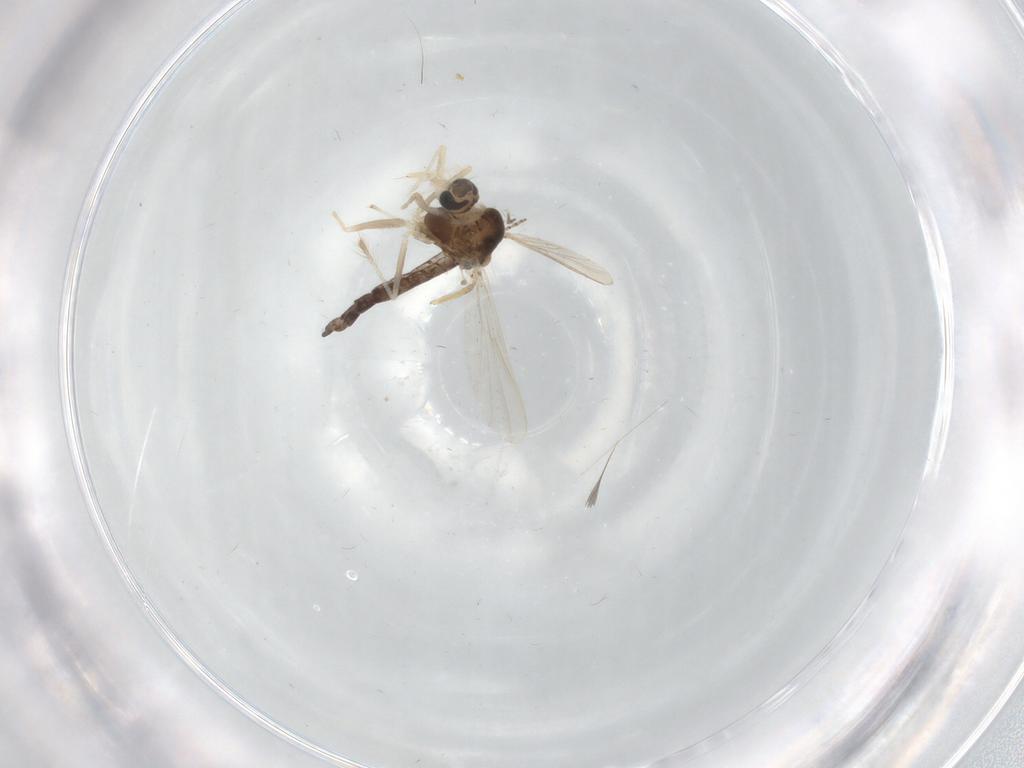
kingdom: Animalia
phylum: Arthropoda
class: Insecta
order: Diptera
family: Chironomidae
